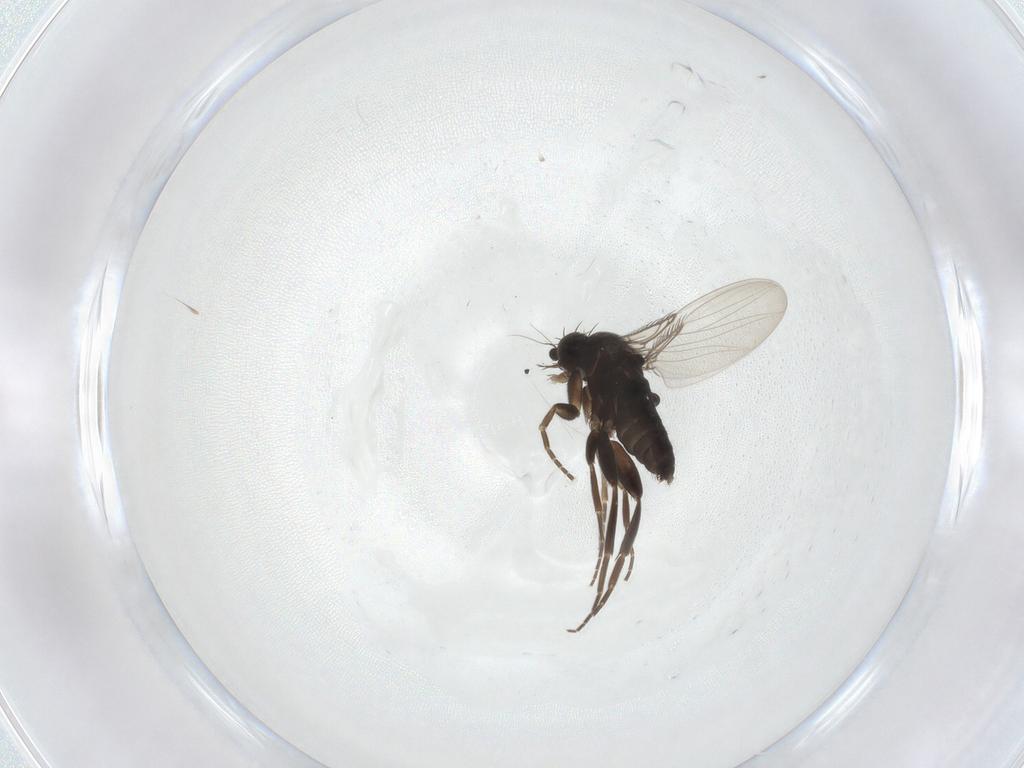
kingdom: Animalia
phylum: Arthropoda
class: Insecta
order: Diptera
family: Phoridae
